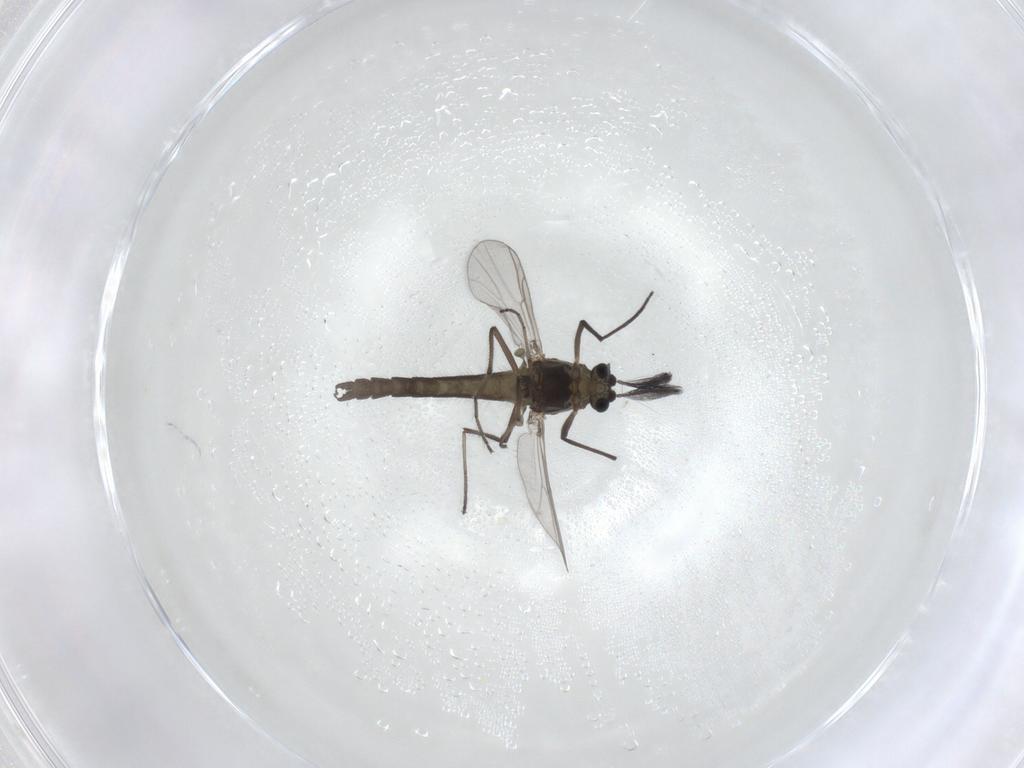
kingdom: Animalia
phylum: Arthropoda
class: Insecta
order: Diptera
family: Chironomidae
